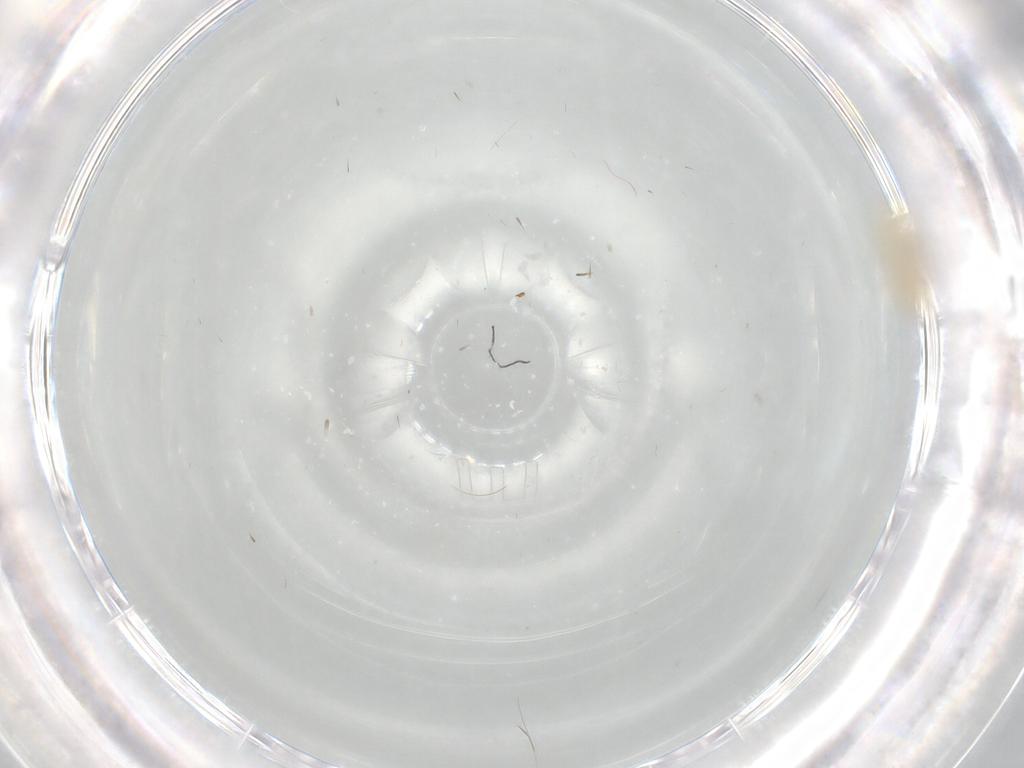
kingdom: Animalia
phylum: Arthropoda
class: Insecta
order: Diptera
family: Chironomidae
